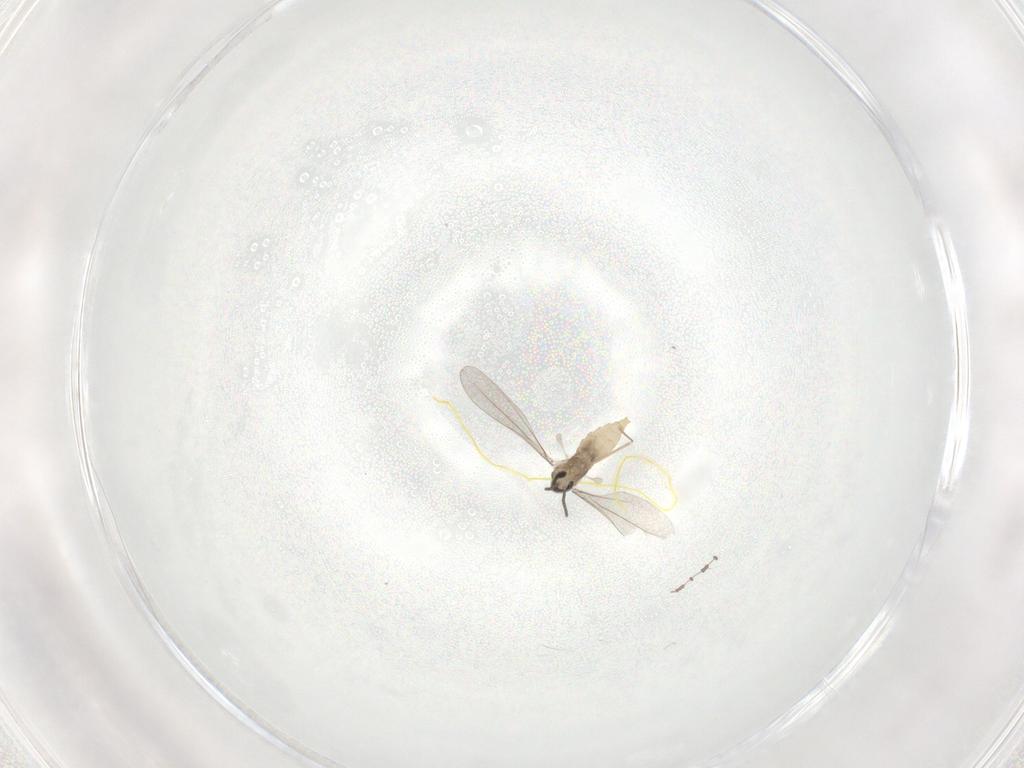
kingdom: Animalia
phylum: Arthropoda
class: Insecta
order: Diptera
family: Cecidomyiidae
